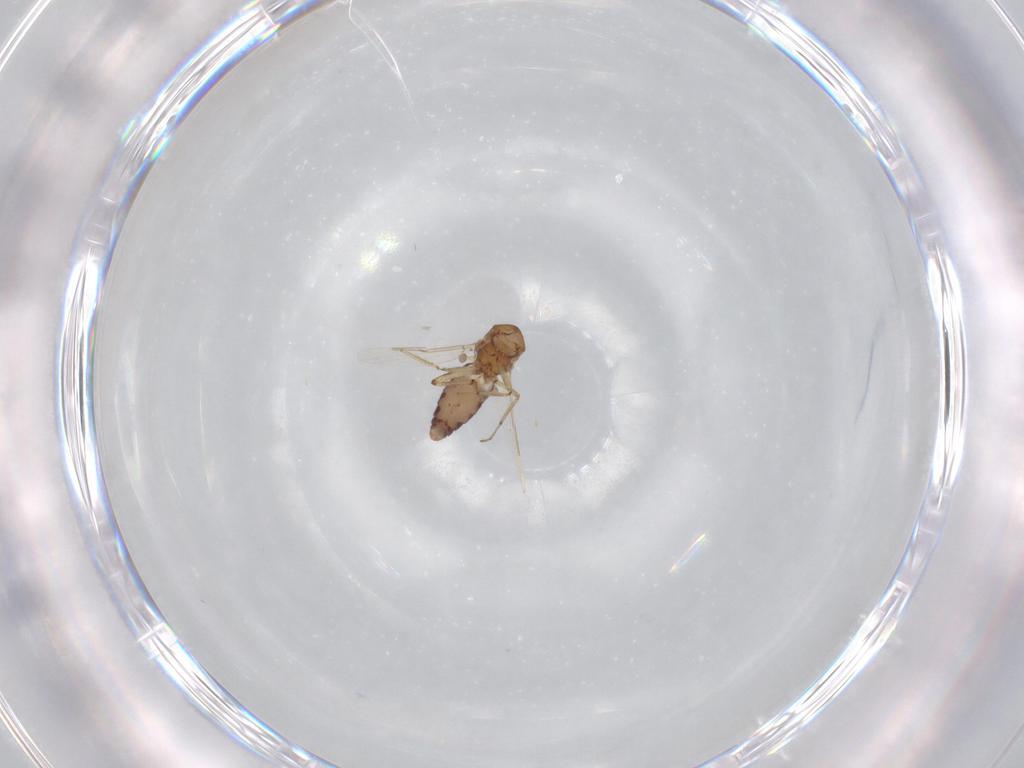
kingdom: Animalia
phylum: Arthropoda
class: Insecta
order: Diptera
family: Ceratopogonidae
